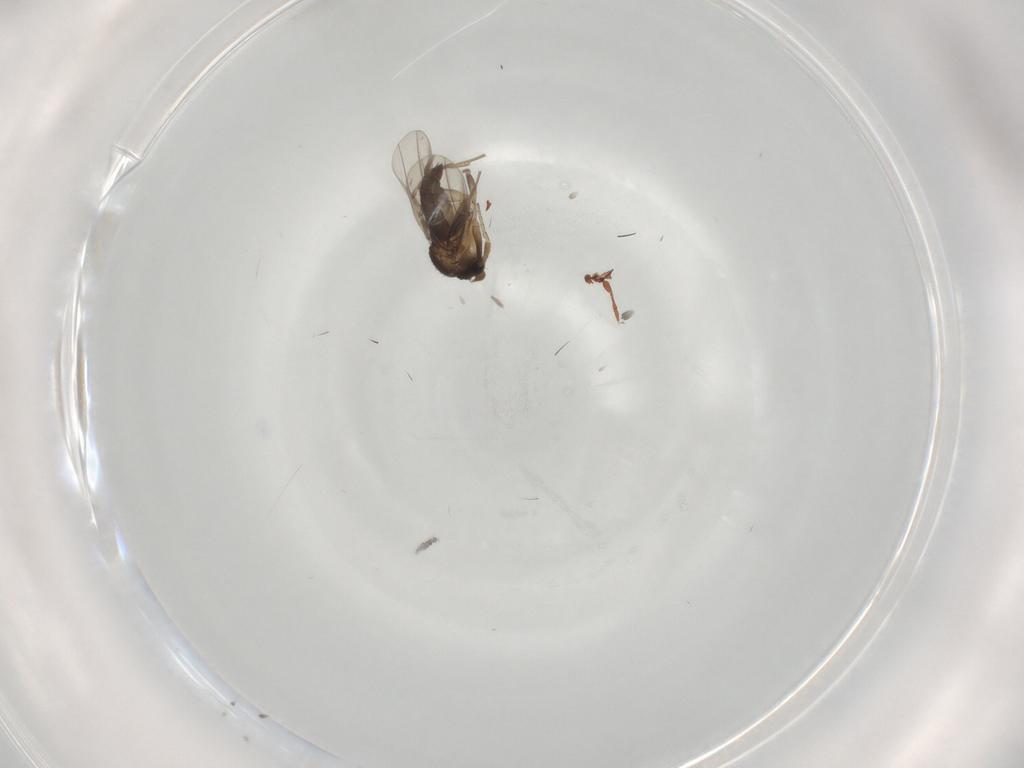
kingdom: Animalia
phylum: Arthropoda
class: Insecta
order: Diptera
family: Phoridae
